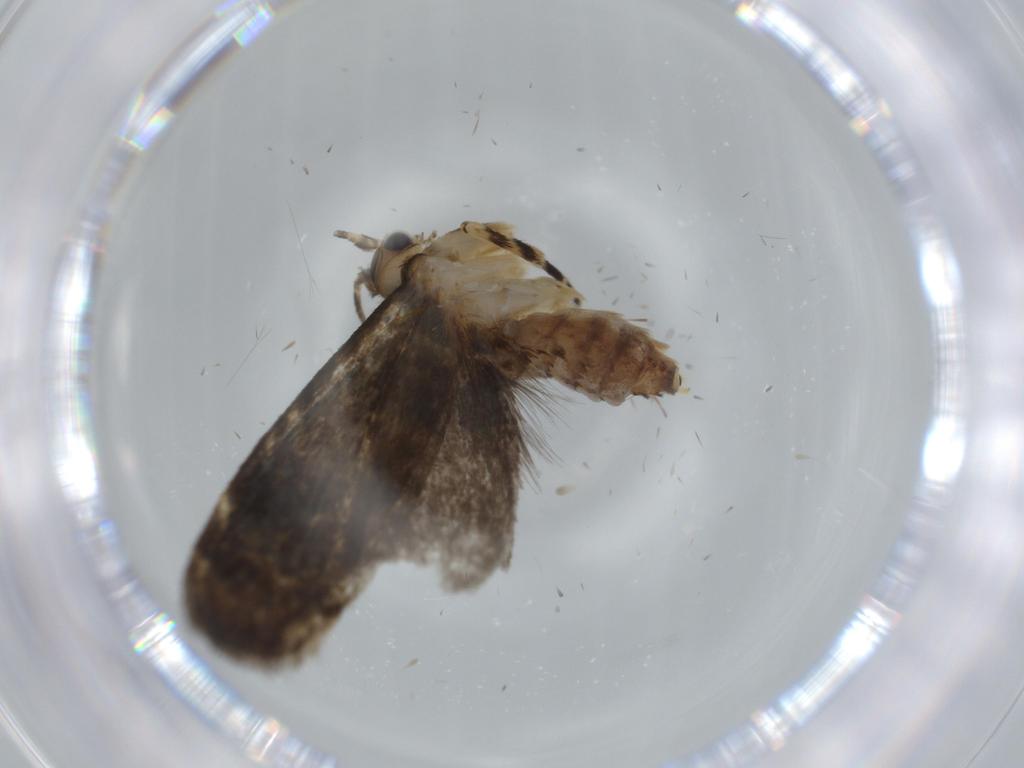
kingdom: Animalia
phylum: Arthropoda
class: Insecta
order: Lepidoptera
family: Tineidae
